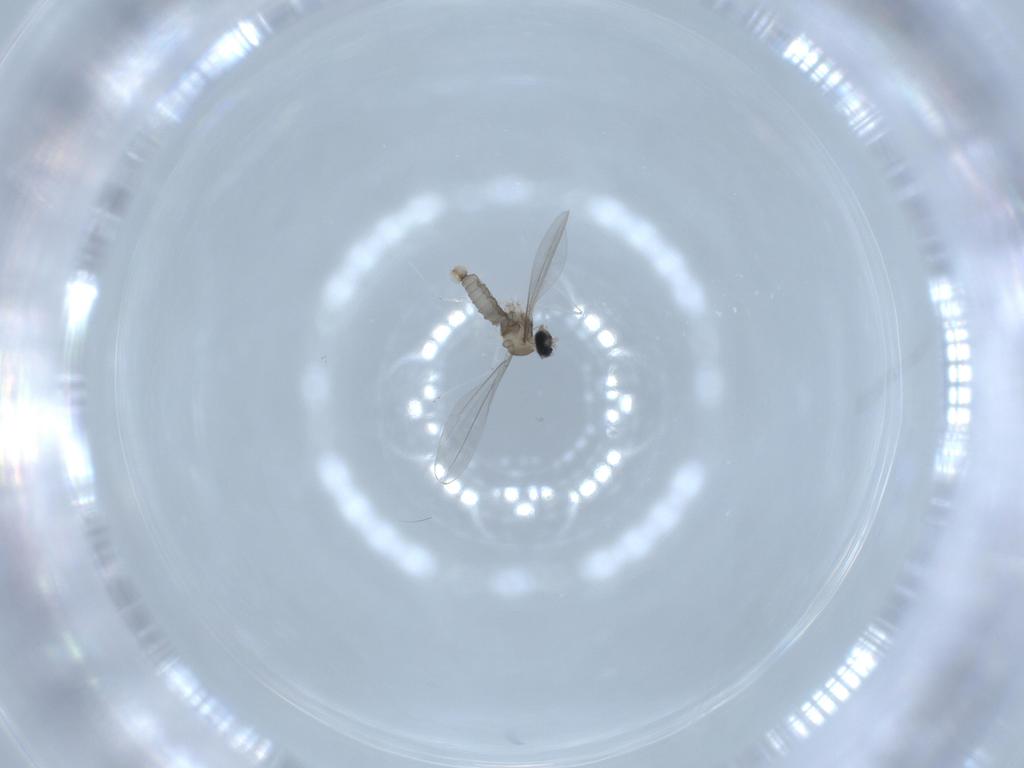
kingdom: Animalia
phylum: Arthropoda
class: Insecta
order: Diptera
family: Cecidomyiidae
